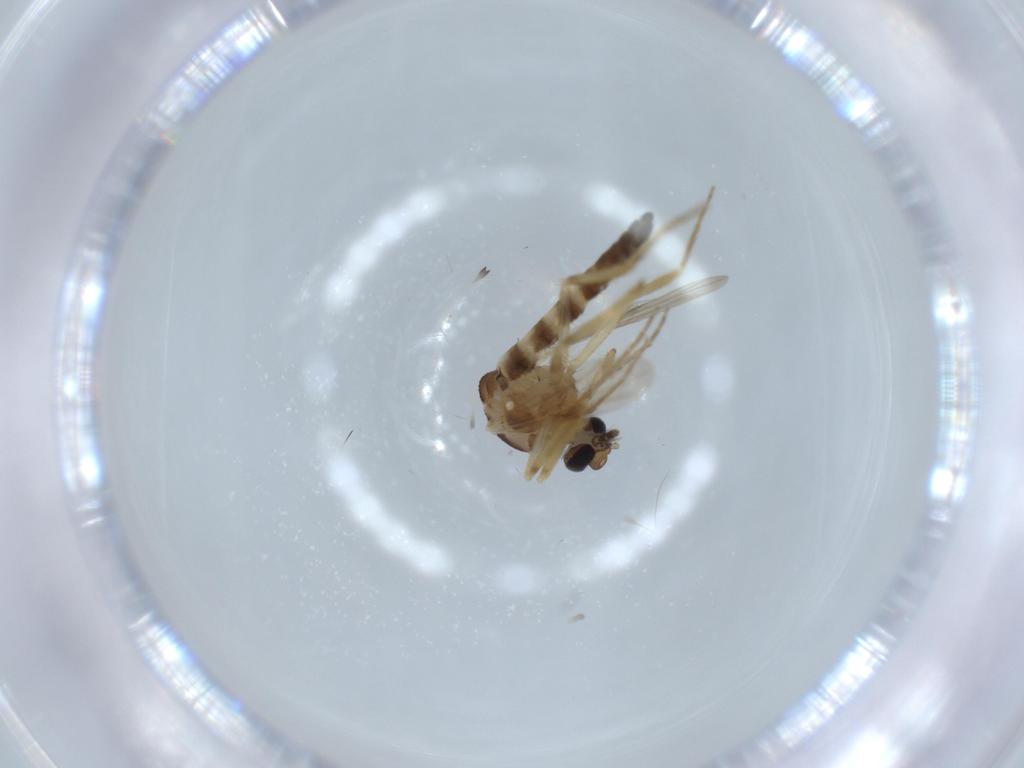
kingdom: Animalia
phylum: Arthropoda
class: Insecta
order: Diptera
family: Ceratopogonidae
